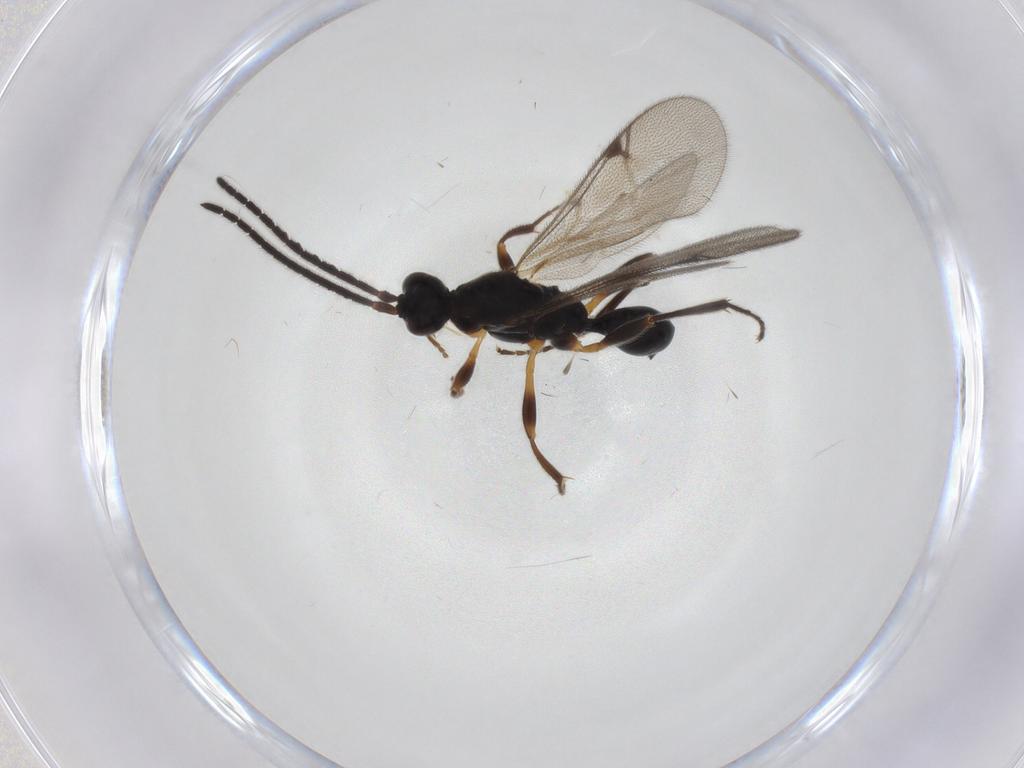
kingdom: Animalia
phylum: Arthropoda
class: Insecta
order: Hymenoptera
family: Proctotrupidae
